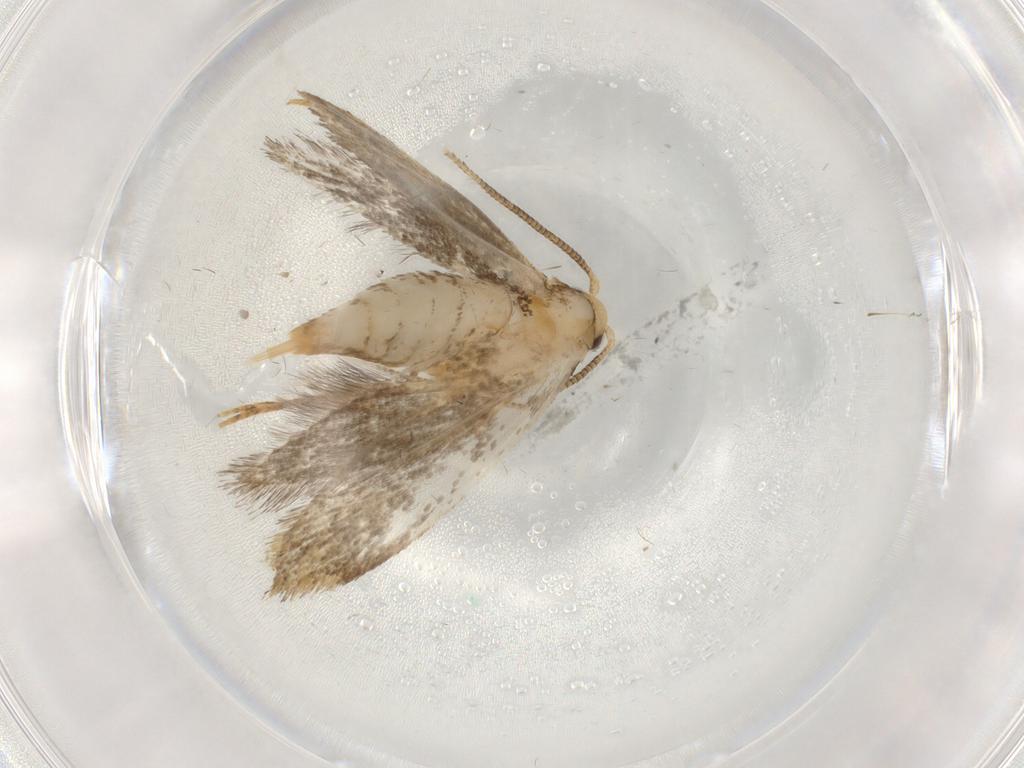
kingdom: Animalia
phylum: Arthropoda
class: Insecta
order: Lepidoptera
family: Tineidae
